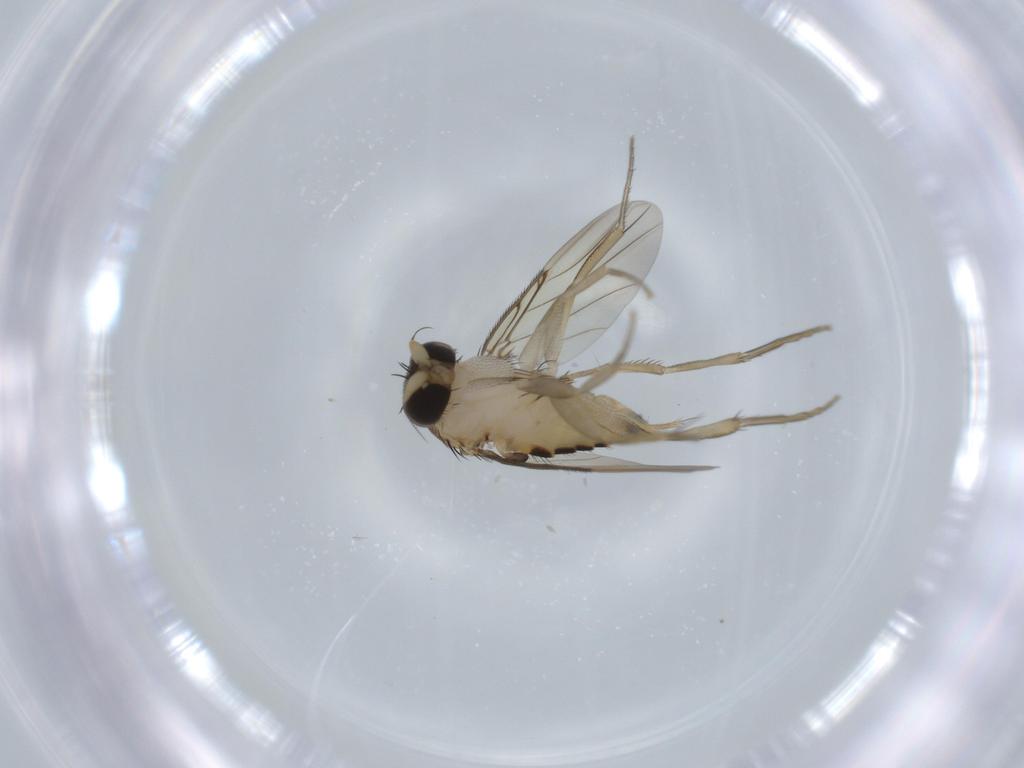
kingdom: Animalia
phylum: Arthropoda
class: Insecta
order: Diptera
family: Phoridae
